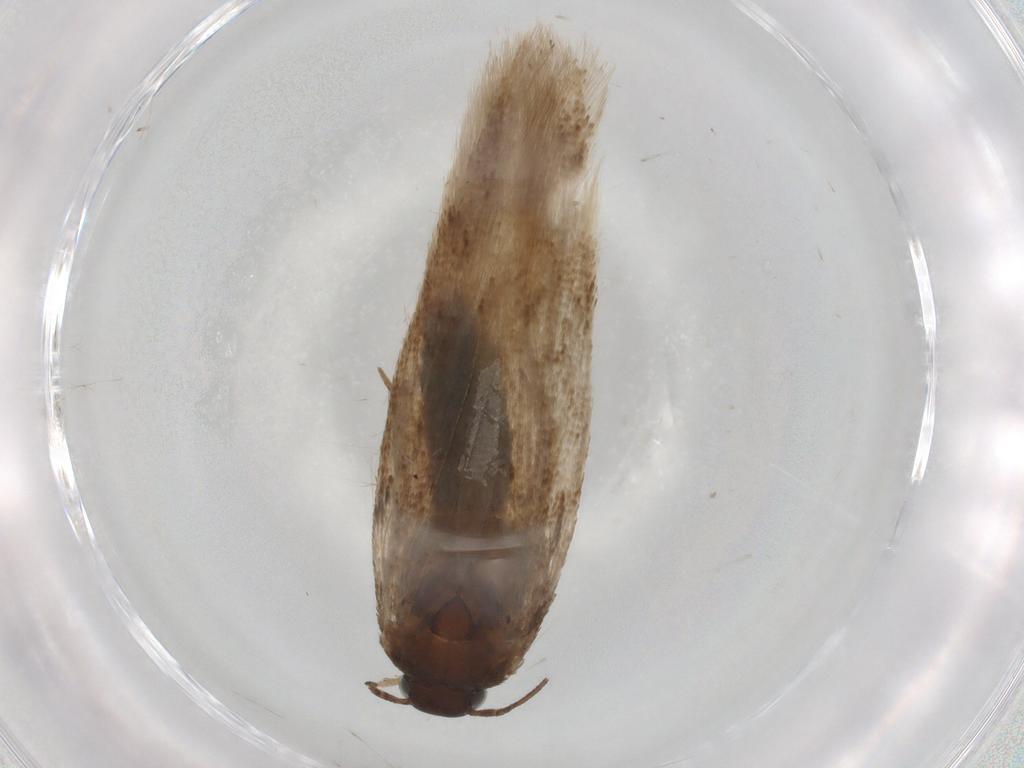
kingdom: Animalia
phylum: Arthropoda
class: Insecta
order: Lepidoptera
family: Gelechiidae
